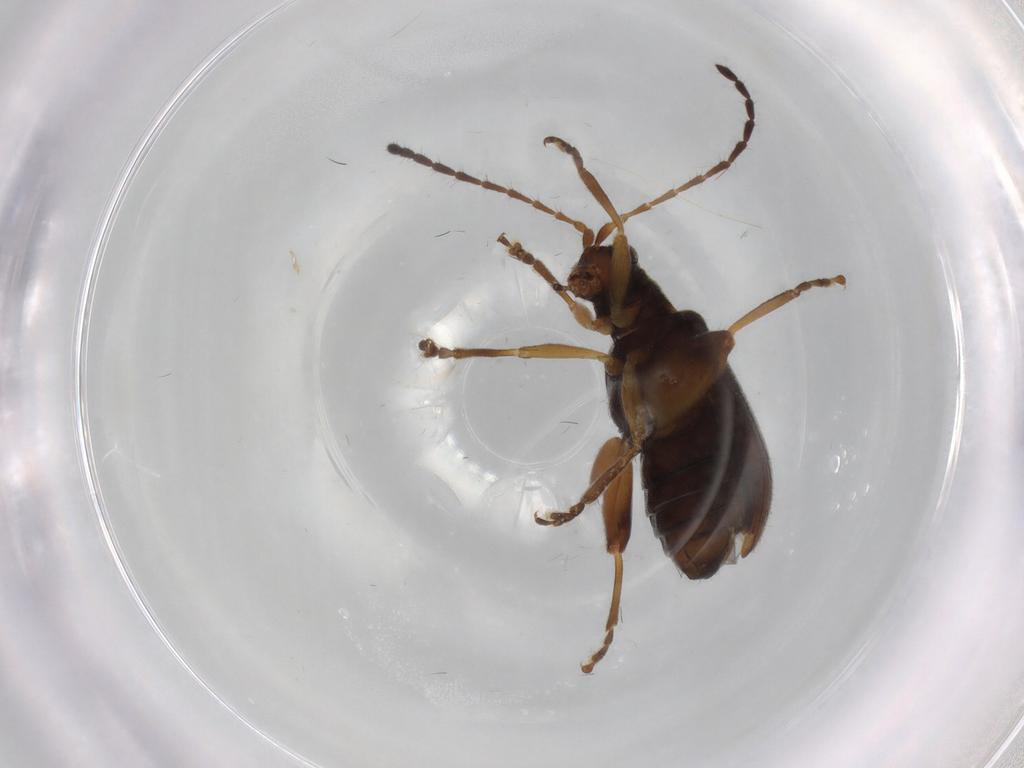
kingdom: Animalia
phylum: Arthropoda
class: Insecta
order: Coleoptera
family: Chrysomelidae
